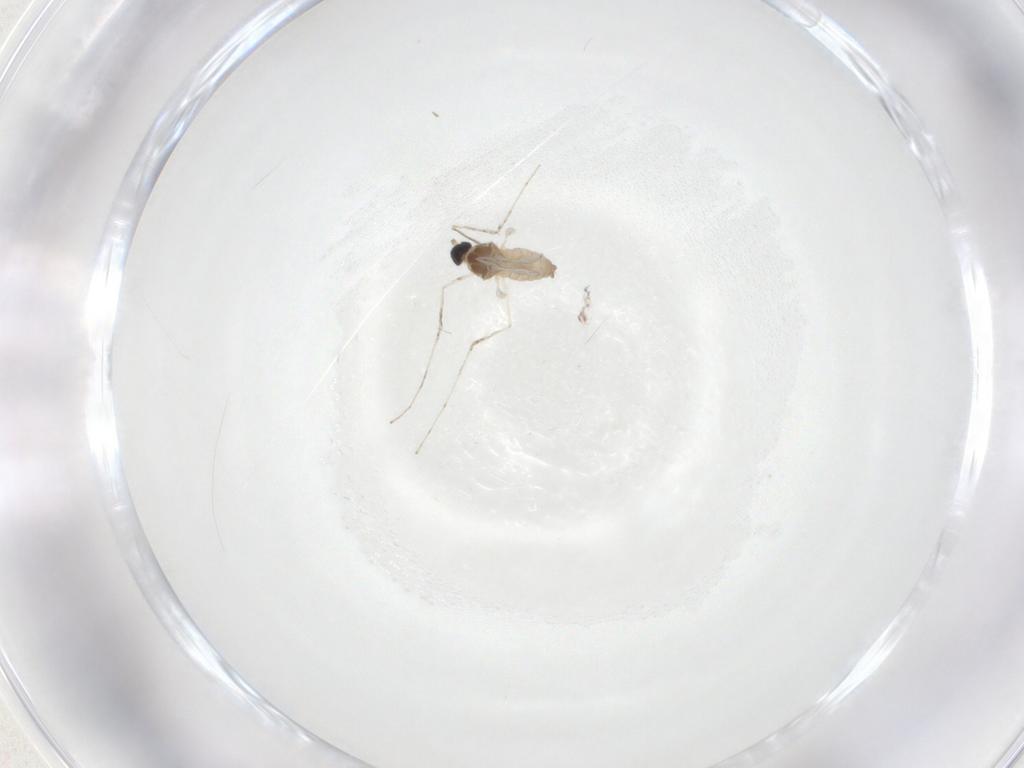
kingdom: Animalia
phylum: Arthropoda
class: Insecta
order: Diptera
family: Cecidomyiidae
